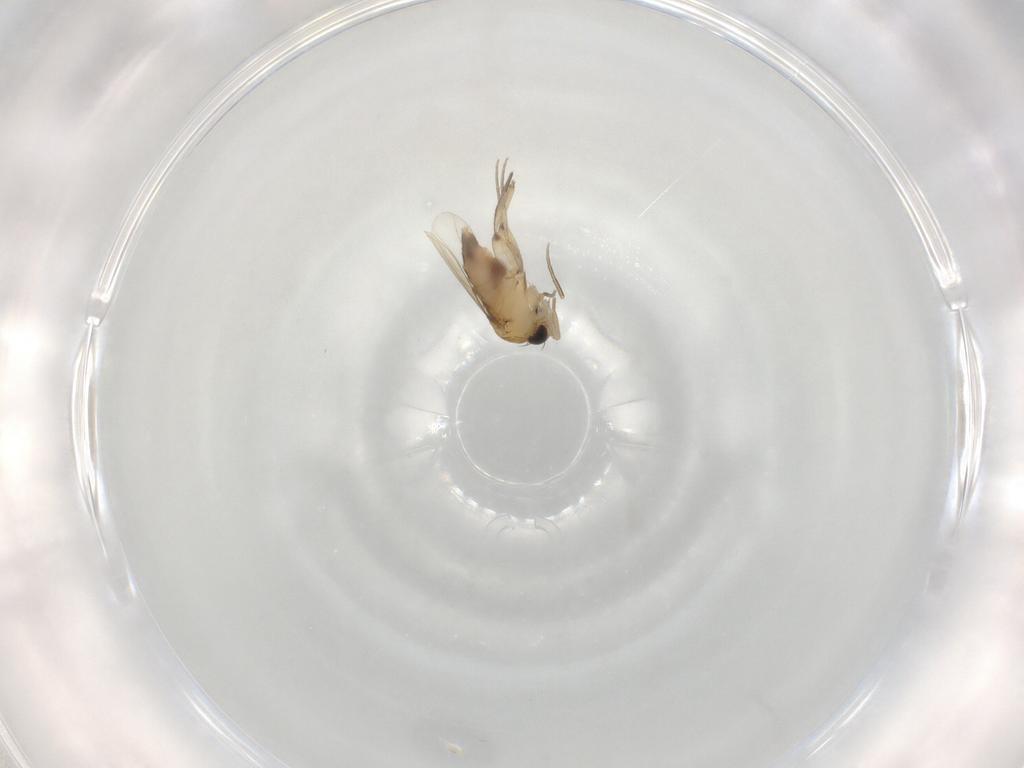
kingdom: Animalia
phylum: Arthropoda
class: Insecta
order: Diptera
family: Phoridae
